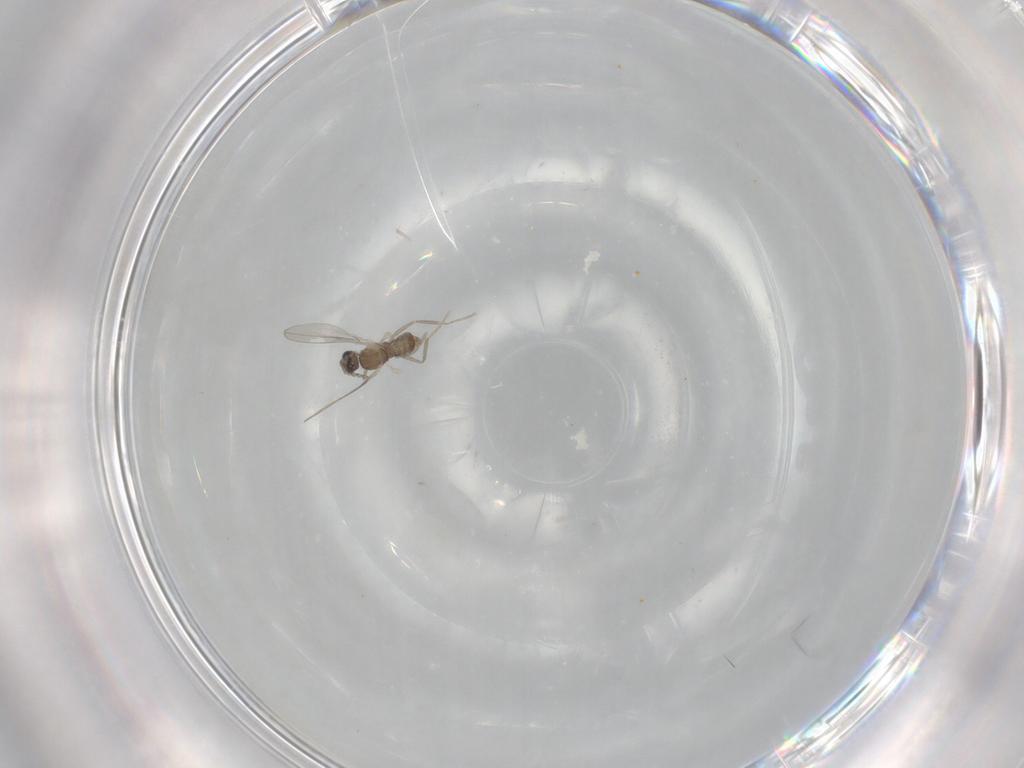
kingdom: Animalia
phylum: Arthropoda
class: Insecta
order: Diptera
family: Cecidomyiidae
